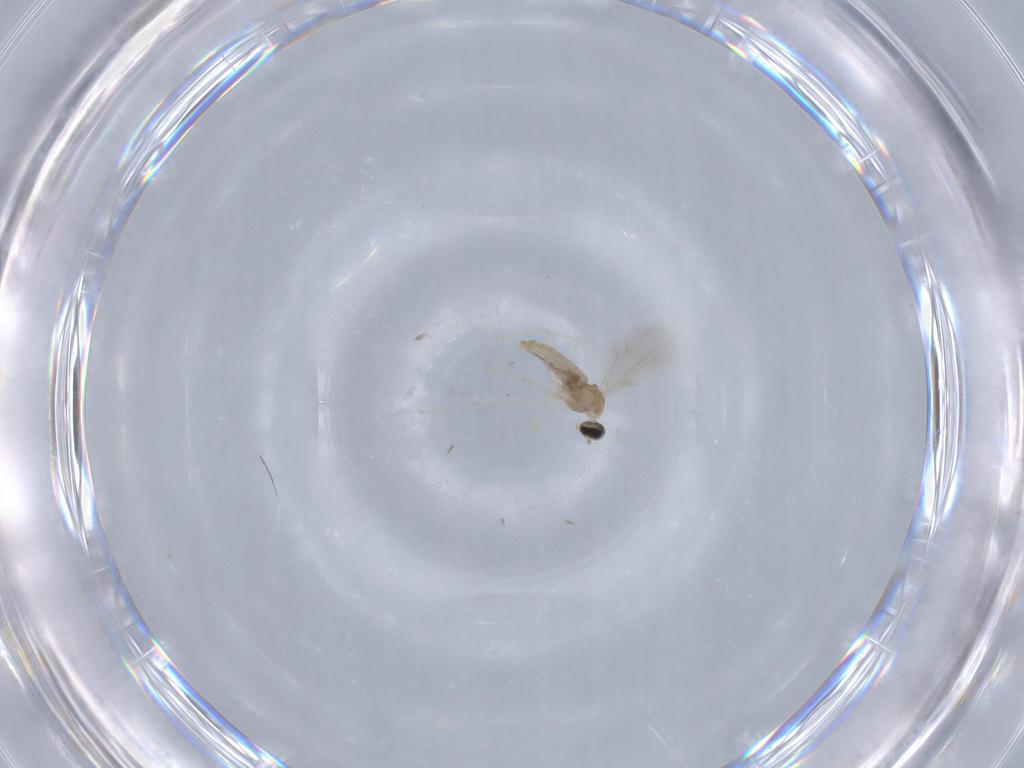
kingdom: Animalia
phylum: Arthropoda
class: Insecta
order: Diptera
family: Cecidomyiidae
